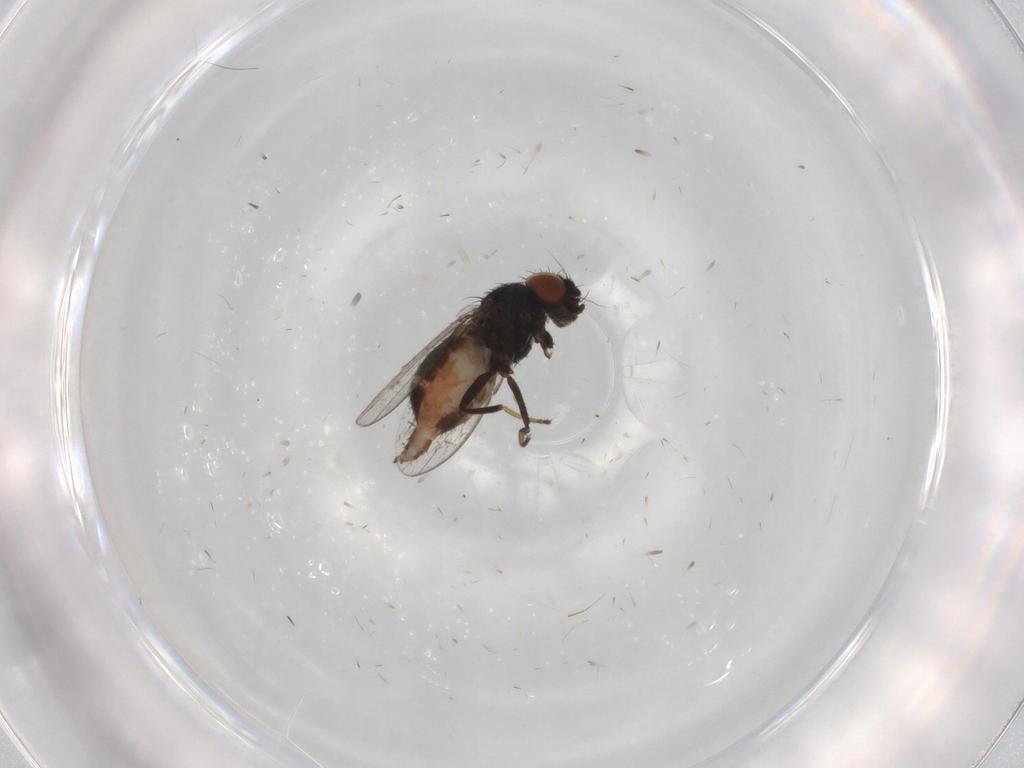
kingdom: Animalia
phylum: Arthropoda
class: Insecta
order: Diptera
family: Milichiidae
